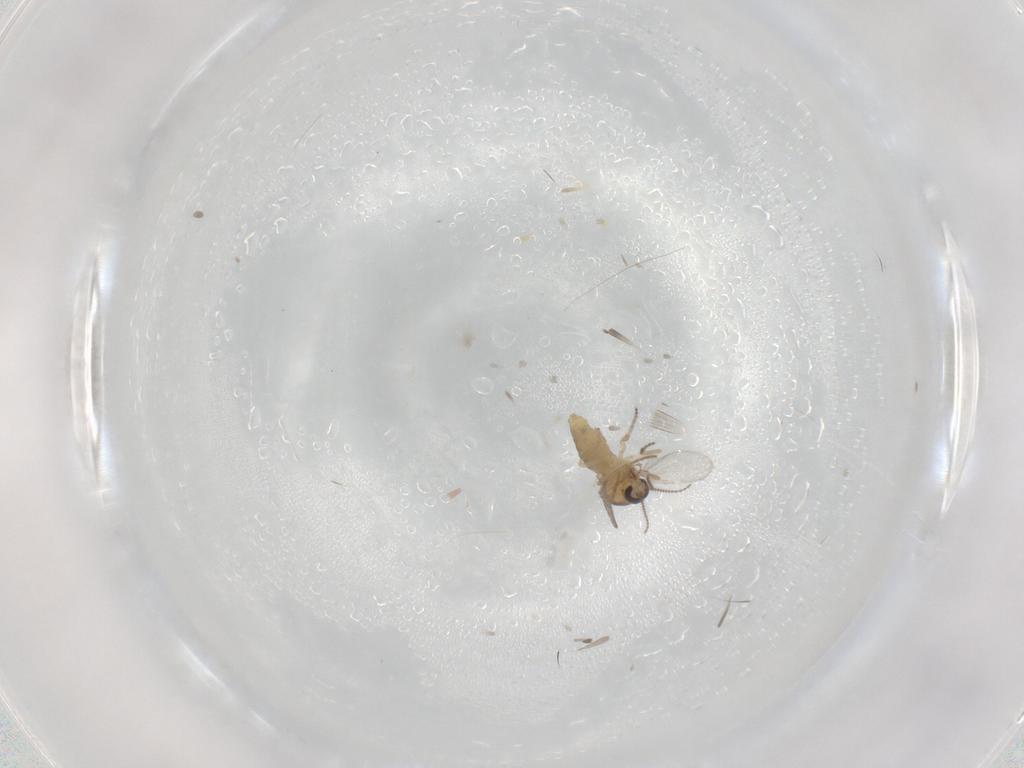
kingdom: Animalia
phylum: Arthropoda
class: Insecta
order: Diptera
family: Ceratopogonidae
